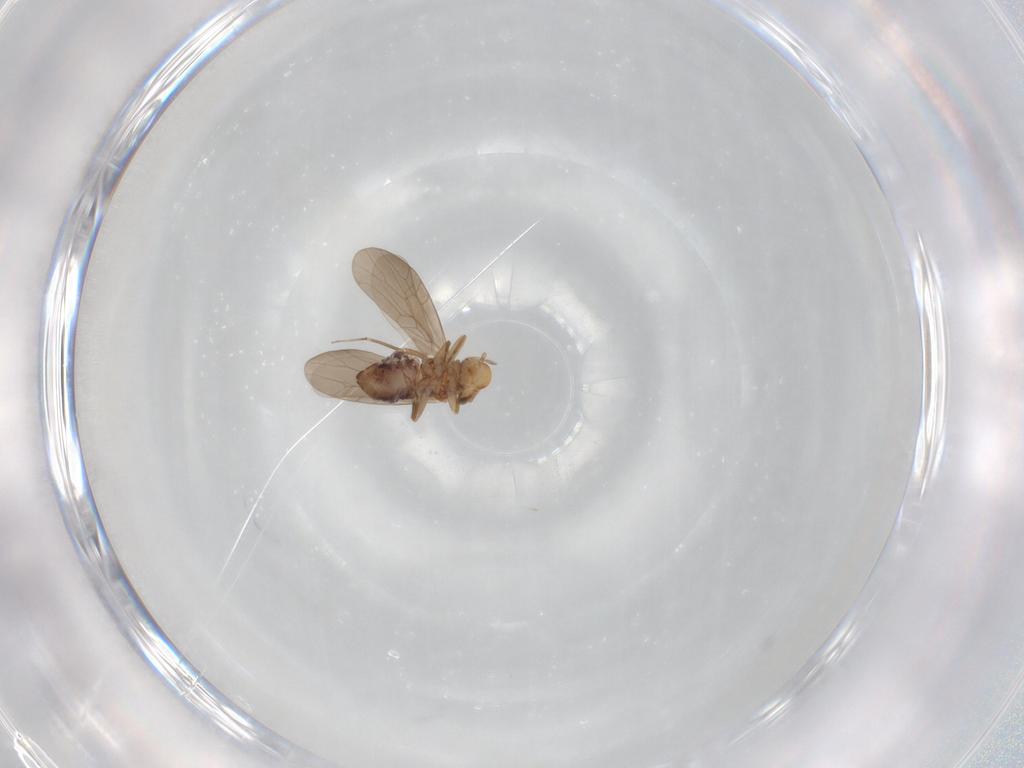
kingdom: Animalia
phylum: Arthropoda
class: Insecta
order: Psocodea
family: Lepidopsocidae
